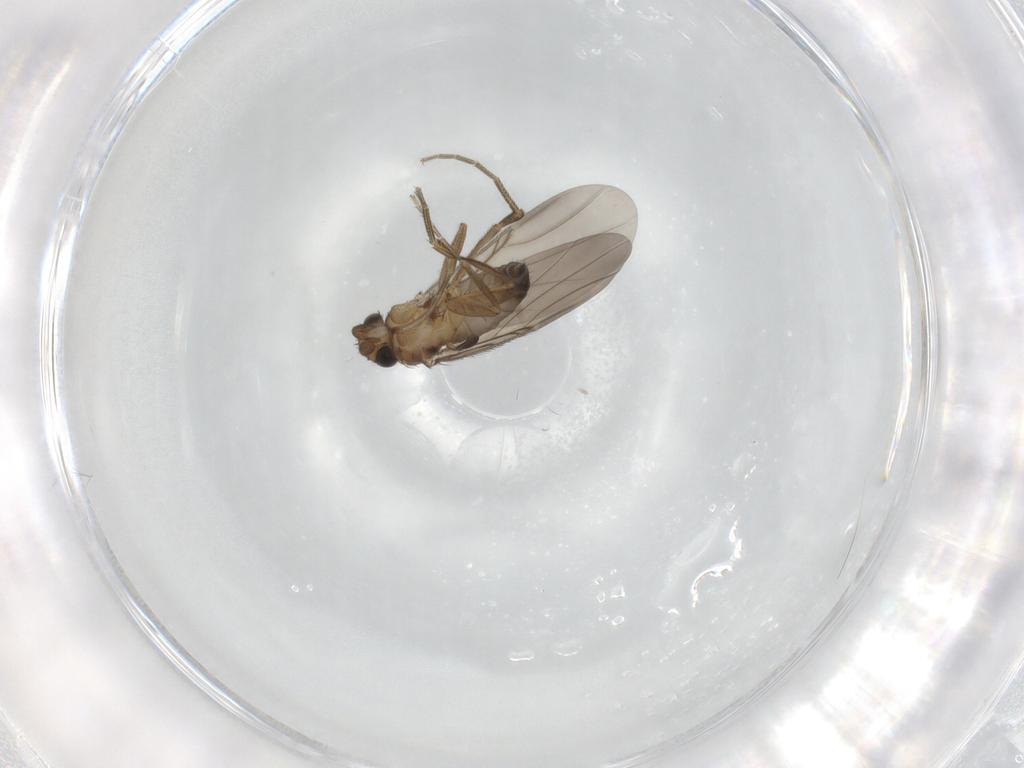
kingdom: Animalia
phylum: Arthropoda
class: Insecta
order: Diptera
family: Phoridae
